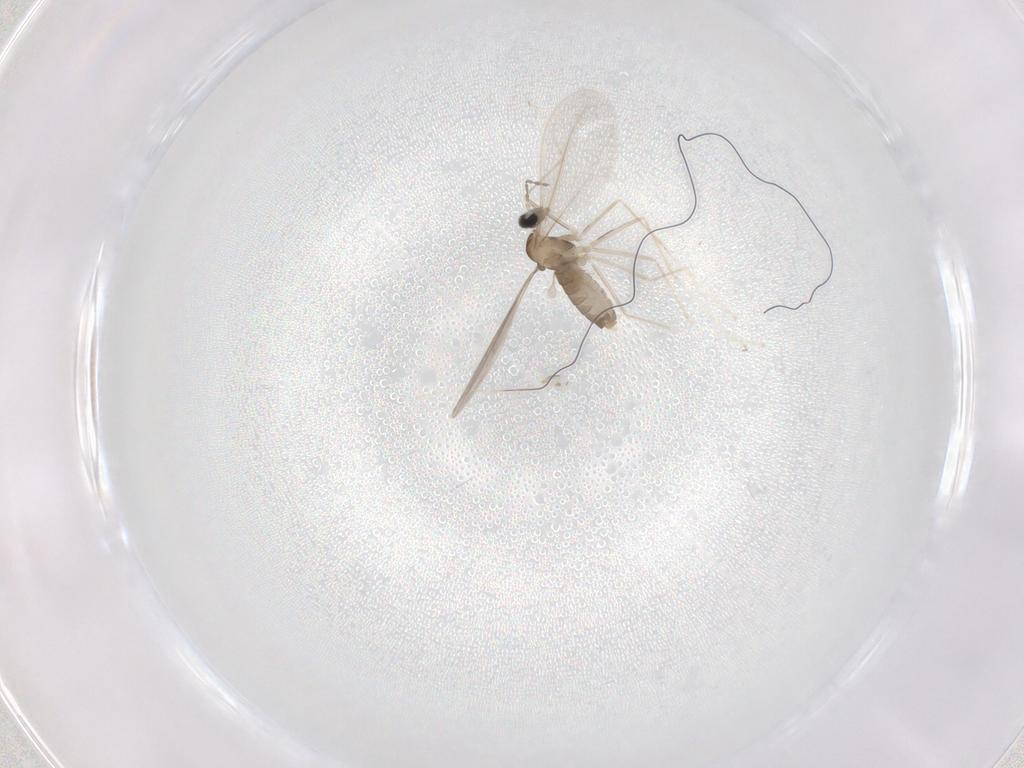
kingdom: Animalia
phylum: Arthropoda
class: Insecta
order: Diptera
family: Cecidomyiidae
